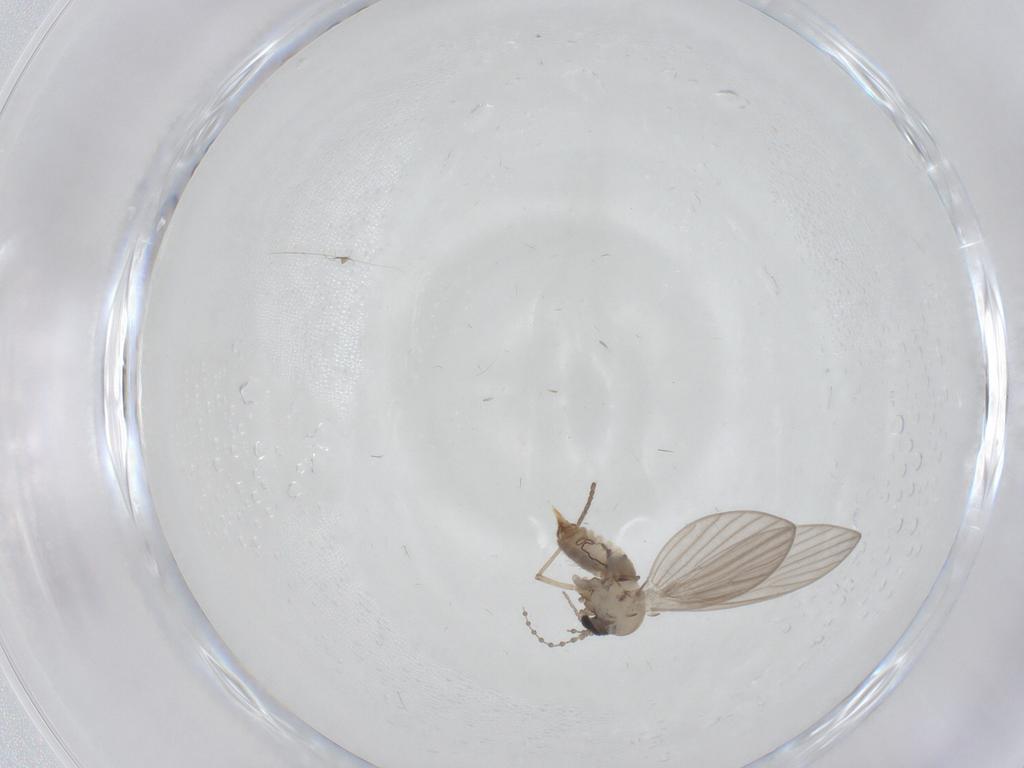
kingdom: Animalia
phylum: Arthropoda
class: Insecta
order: Diptera
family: Psychodidae
